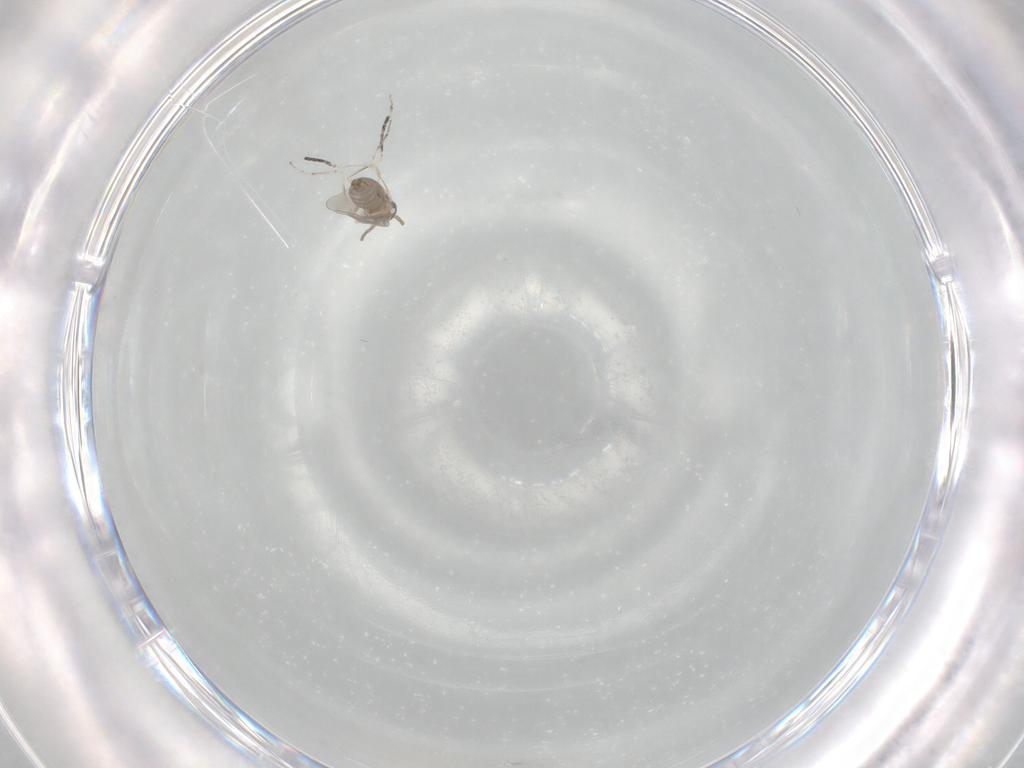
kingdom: Animalia
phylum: Arthropoda
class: Insecta
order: Diptera
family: Cecidomyiidae
